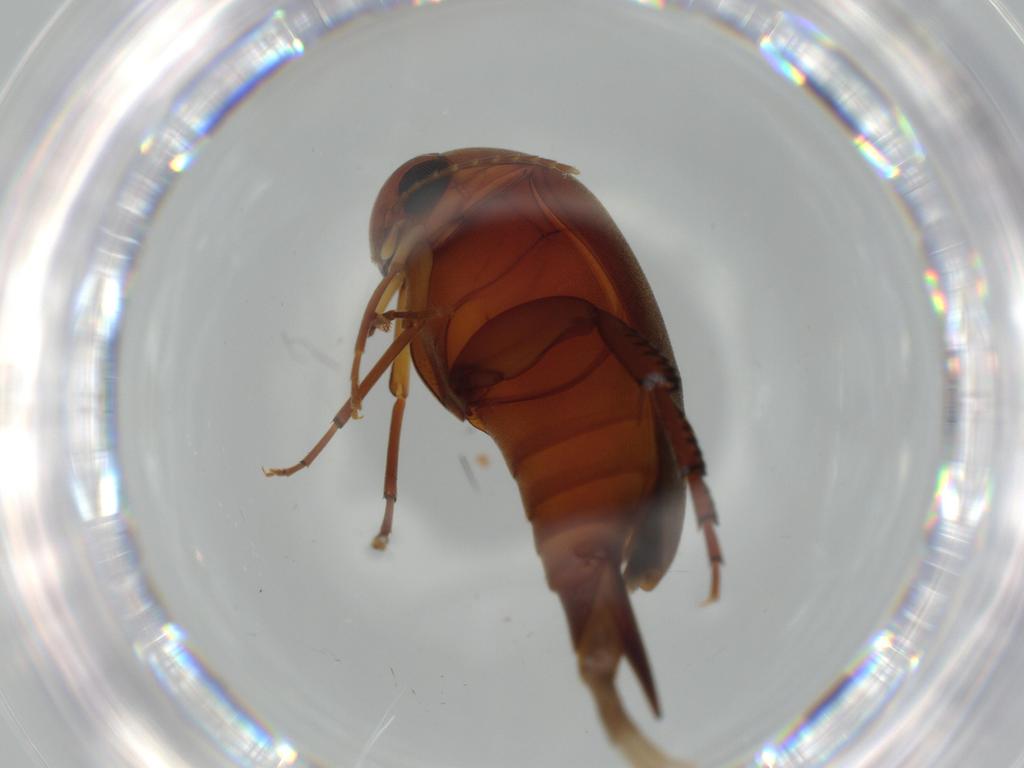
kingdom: Animalia
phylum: Arthropoda
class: Insecta
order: Coleoptera
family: Mordellidae
